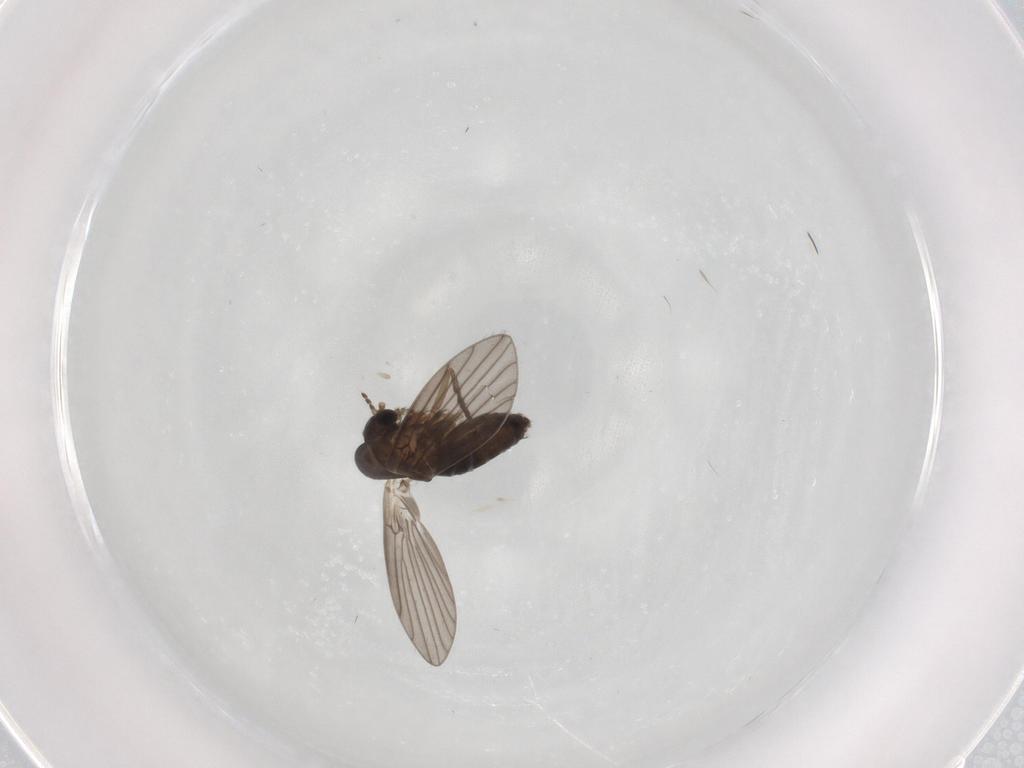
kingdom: Animalia
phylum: Arthropoda
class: Insecta
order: Diptera
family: Ceratopogonidae
